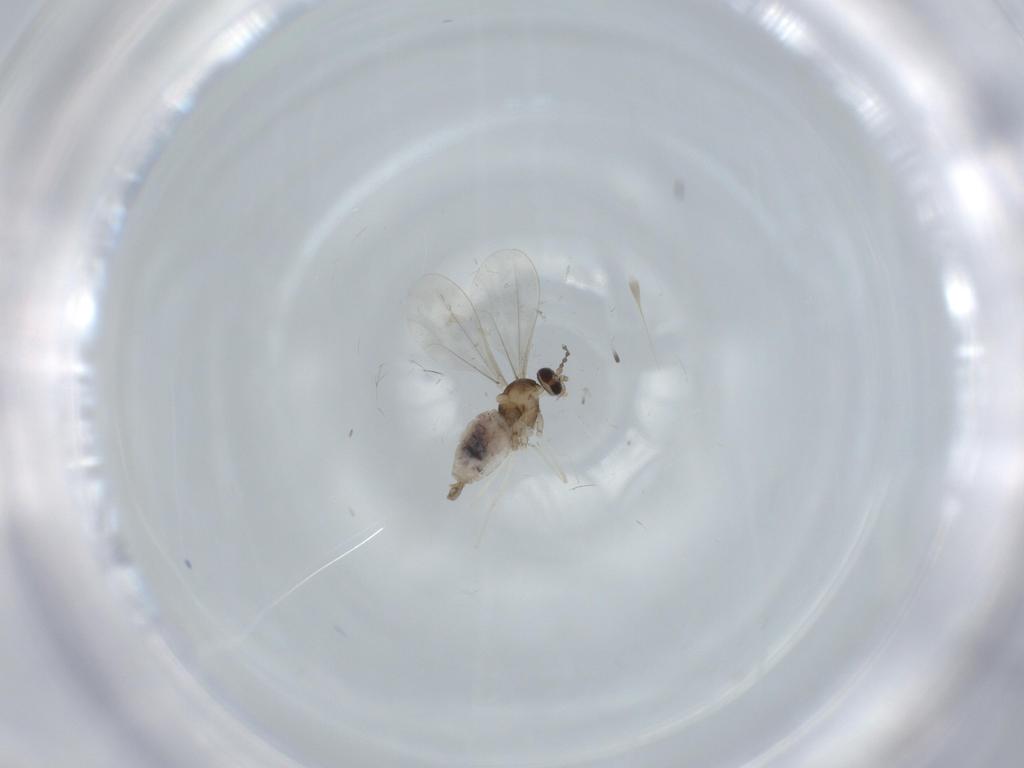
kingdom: Animalia
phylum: Arthropoda
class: Insecta
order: Diptera
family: Cecidomyiidae
